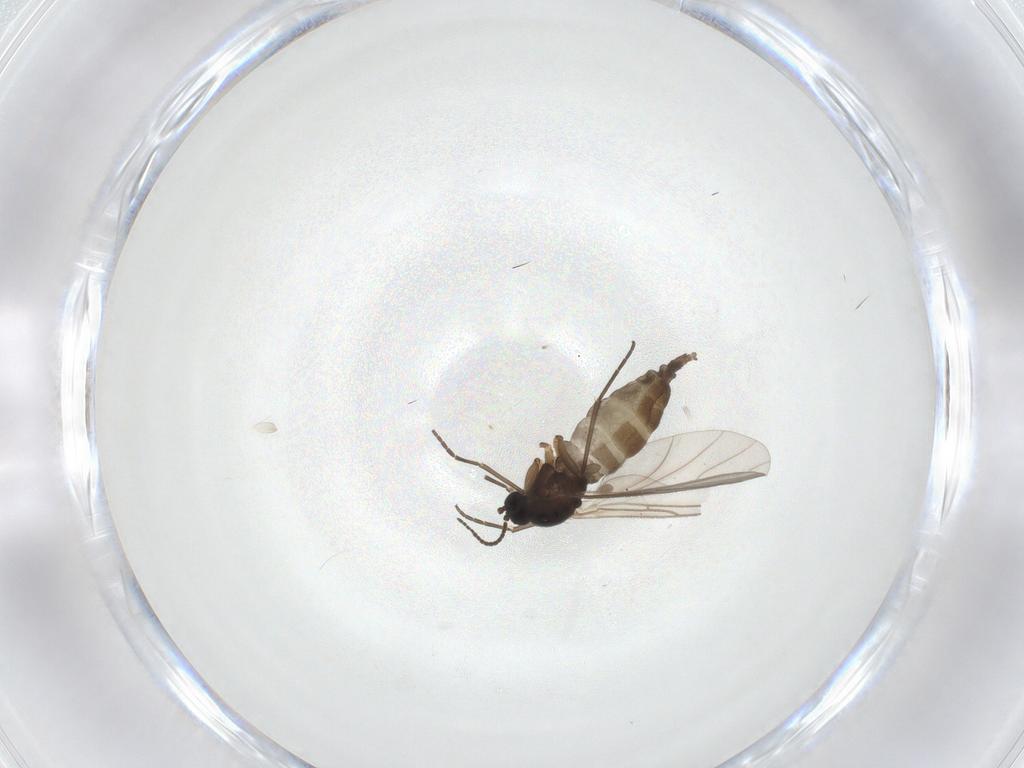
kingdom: Animalia
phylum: Arthropoda
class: Insecta
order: Diptera
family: Sciaridae
